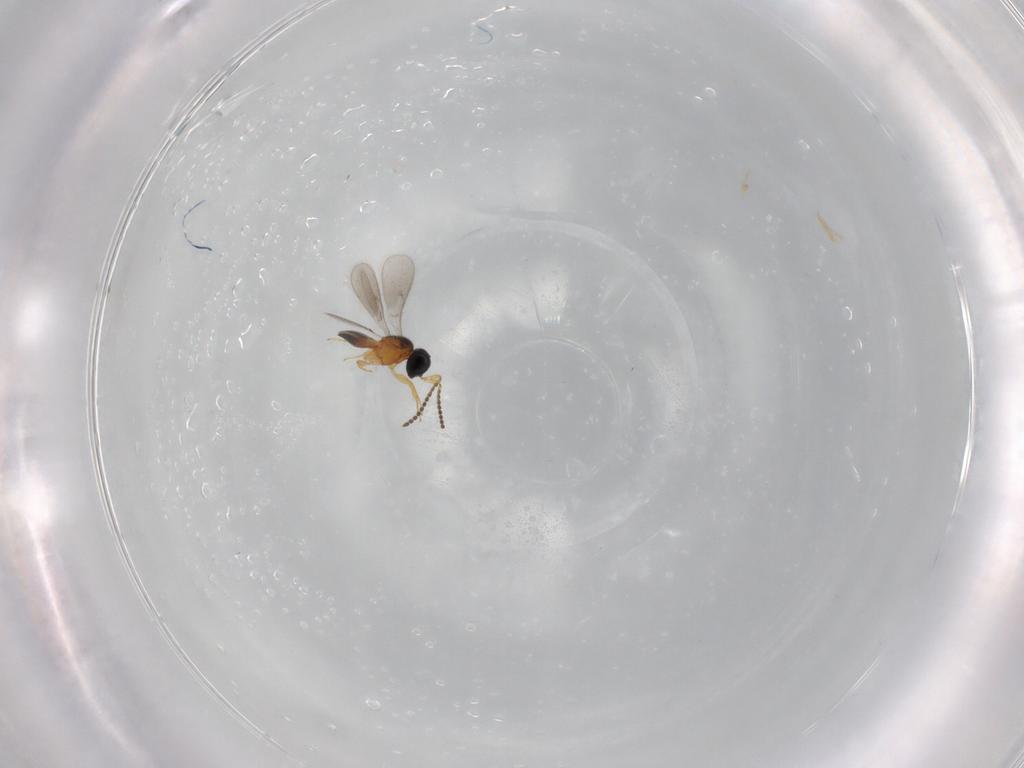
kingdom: Animalia
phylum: Arthropoda
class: Insecta
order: Hymenoptera
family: Scelionidae
